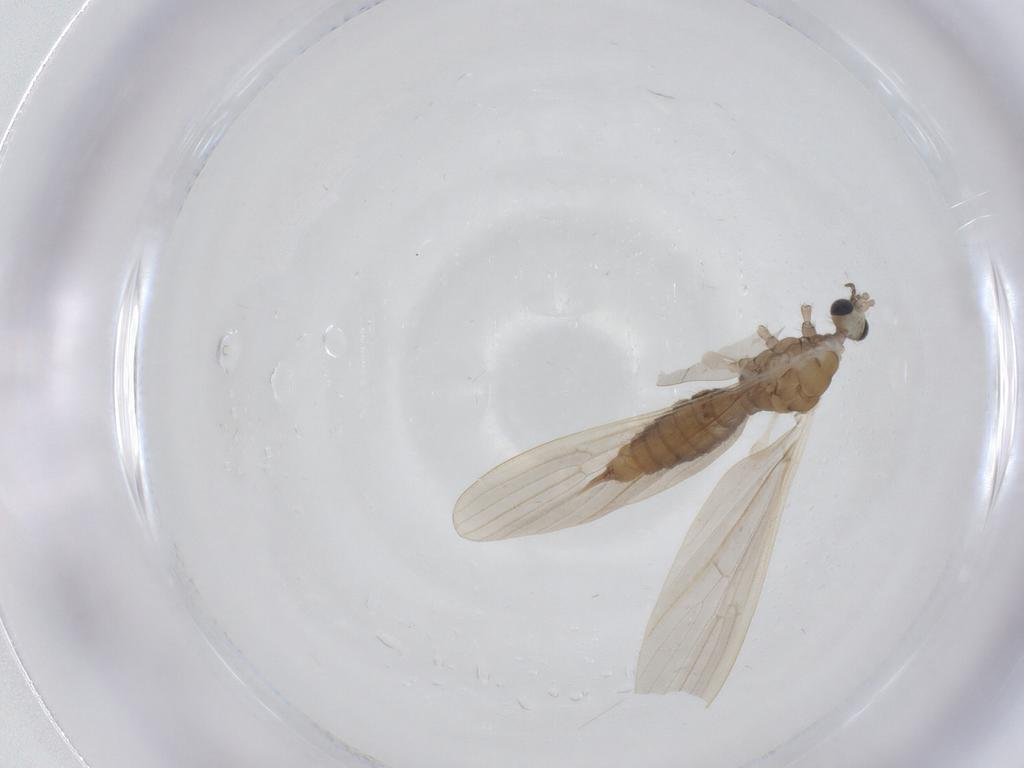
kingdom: Animalia
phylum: Arthropoda
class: Insecta
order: Diptera
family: Limoniidae
